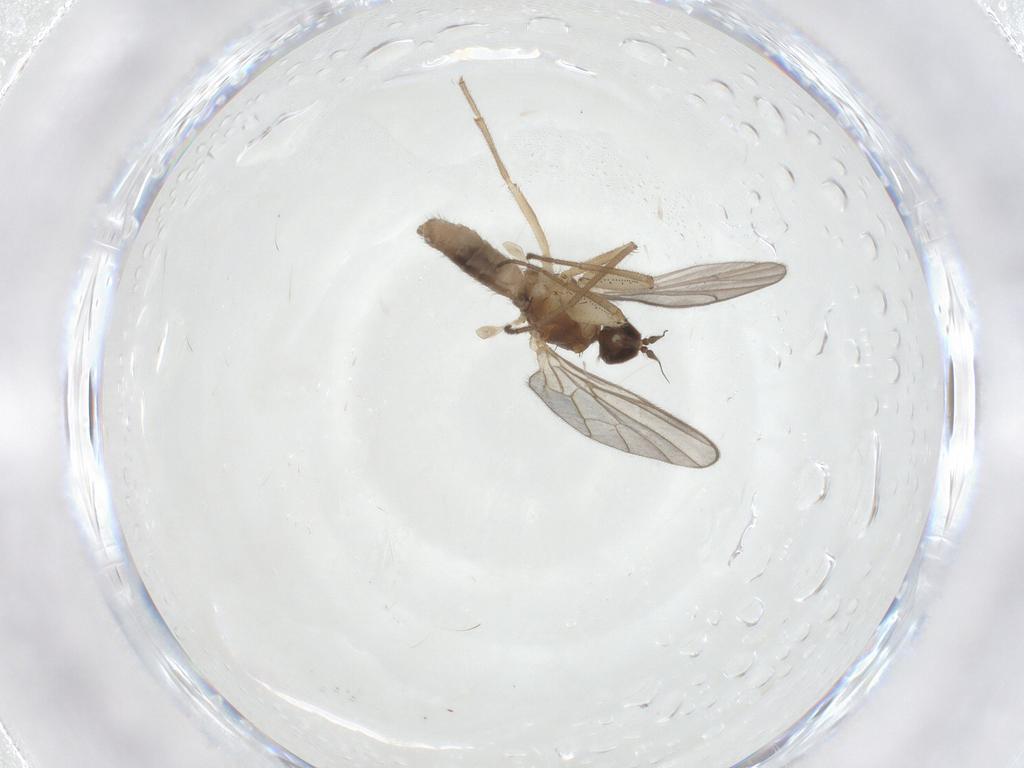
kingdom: Animalia
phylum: Arthropoda
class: Insecta
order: Diptera
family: Empididae
